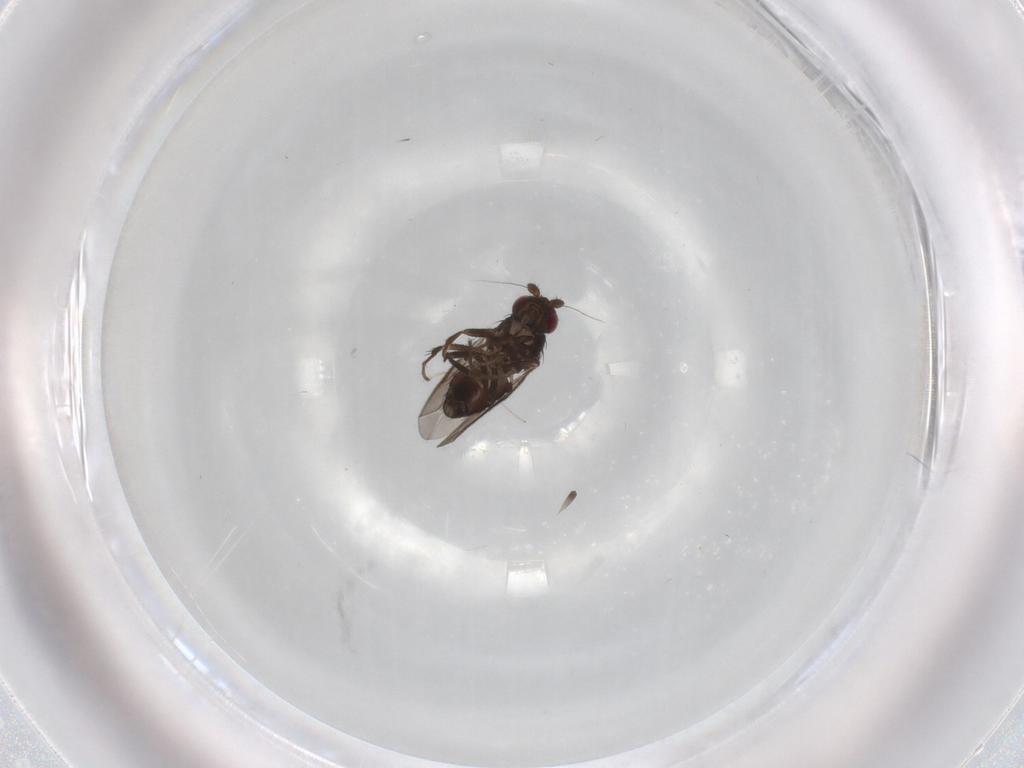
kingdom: Animalia
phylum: Arthropoda
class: Insecta
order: Diptera
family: Sphaeroceridae
